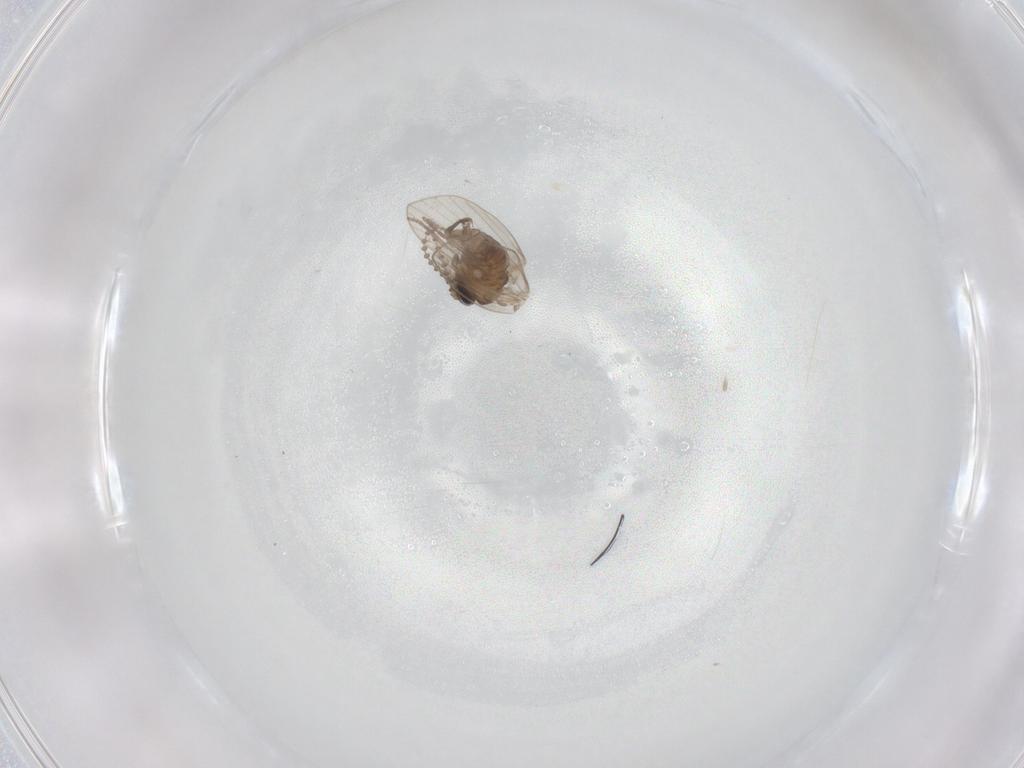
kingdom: Animalia
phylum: Arthropoda
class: Insecta
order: Diptera
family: Psychodidae
